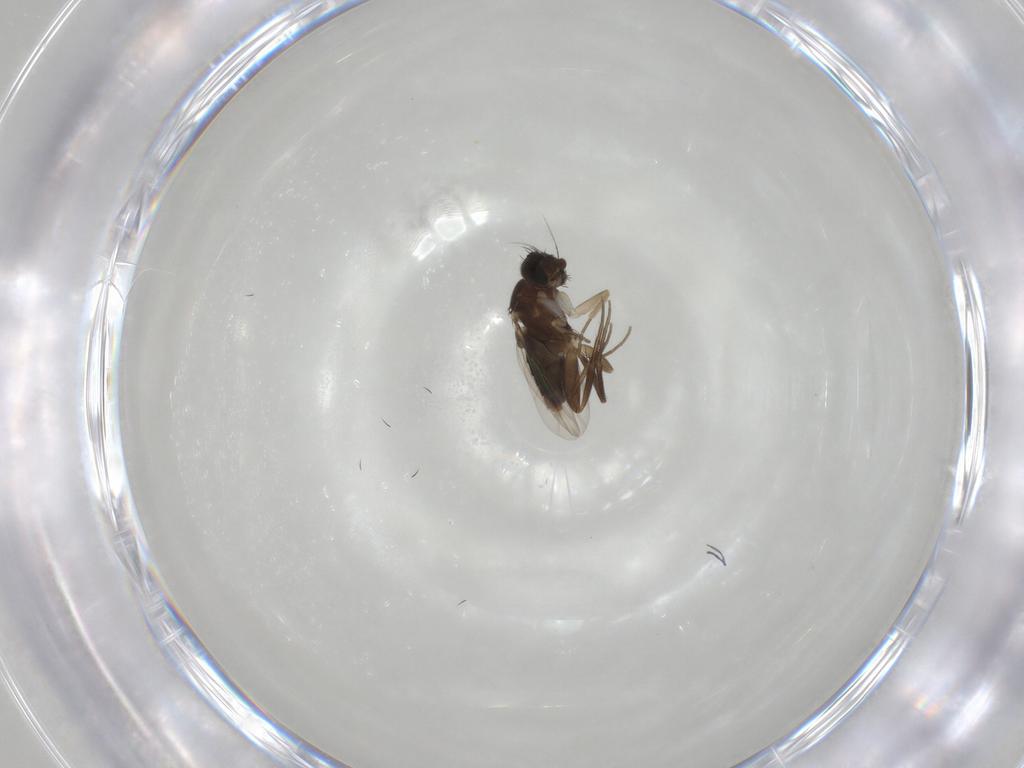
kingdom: Animalia
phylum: Arthropoda
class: Insecta
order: Diptera
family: Phoridae
